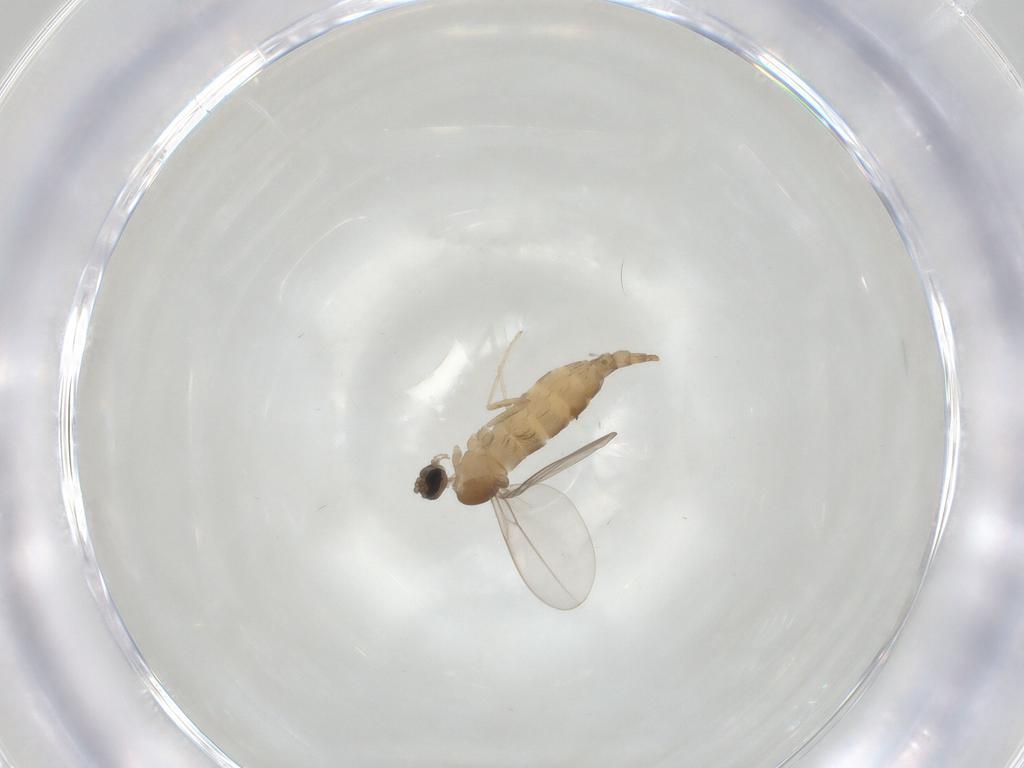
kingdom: Animalia
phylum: Arthropoda
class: Insecta
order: Diptera
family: Cecidomyiidae
